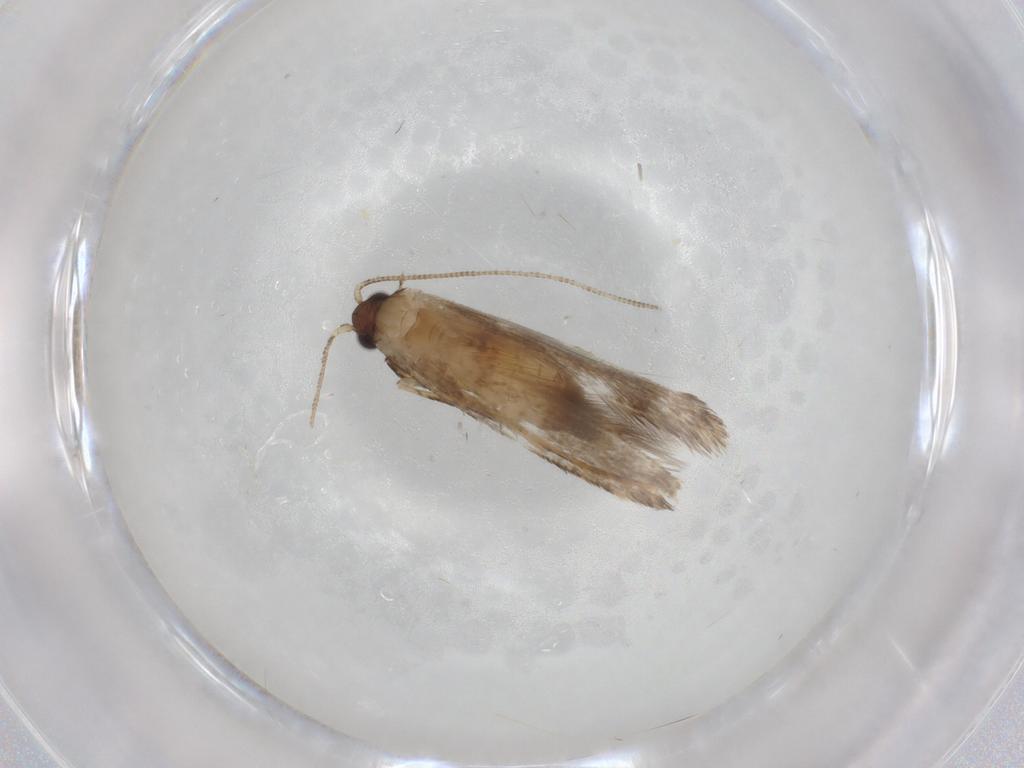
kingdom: Animalia
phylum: Arthropoda
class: Insecta
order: Lepidoptera
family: Tineidae
